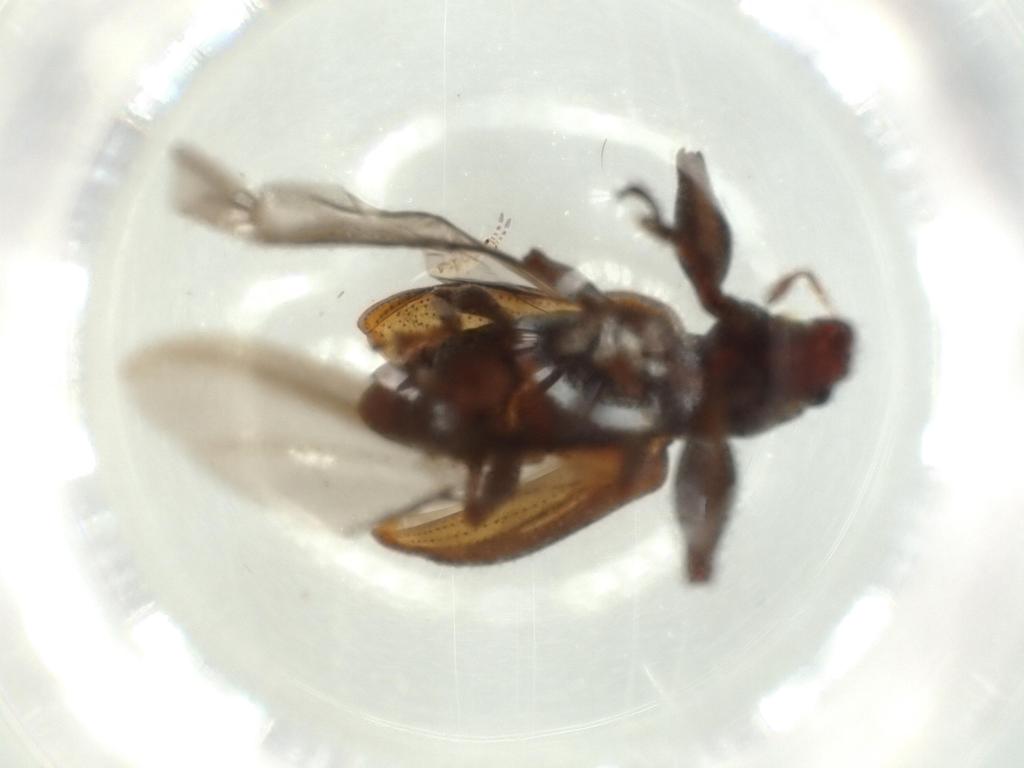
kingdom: Animalia
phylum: Arthropoda
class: Collembola
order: Entomobryomorpha
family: Entomobryidae
